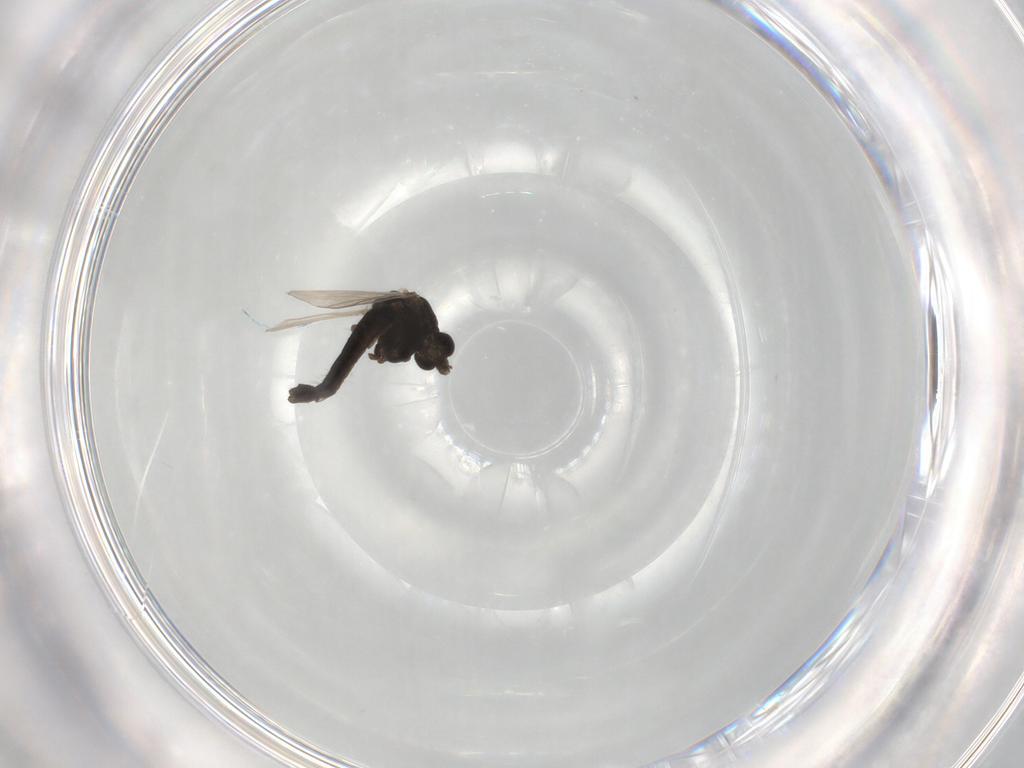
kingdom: Animalia
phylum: Arthropoda
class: Insecta
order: Diptera
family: Chironomidae
